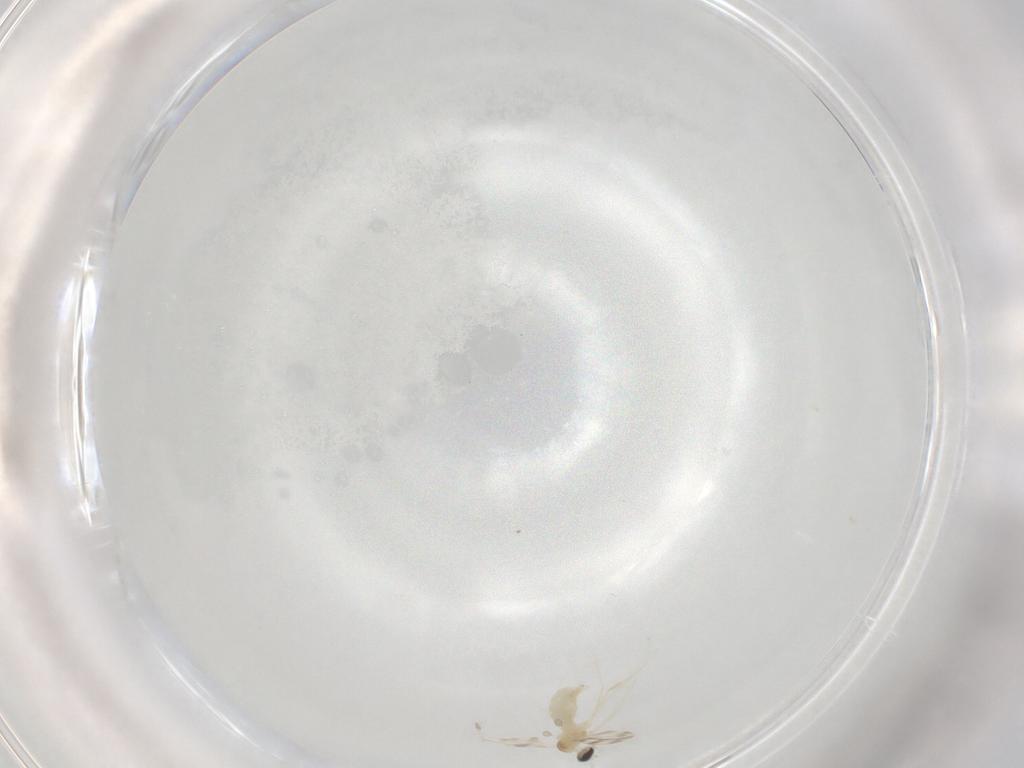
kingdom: Animalia
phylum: Arthropoda
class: Insecta
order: Diptera
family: Cecidomyiidae
